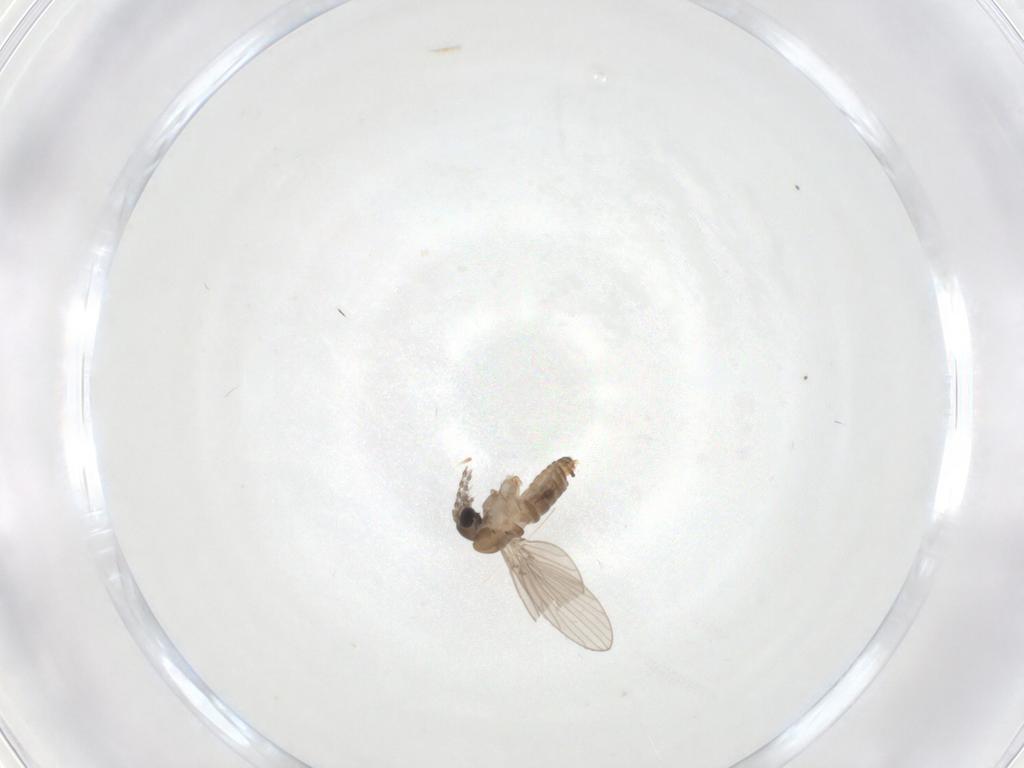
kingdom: Animalia
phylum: Arthropoda
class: Insecta
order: Diptera
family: Psychodidae
